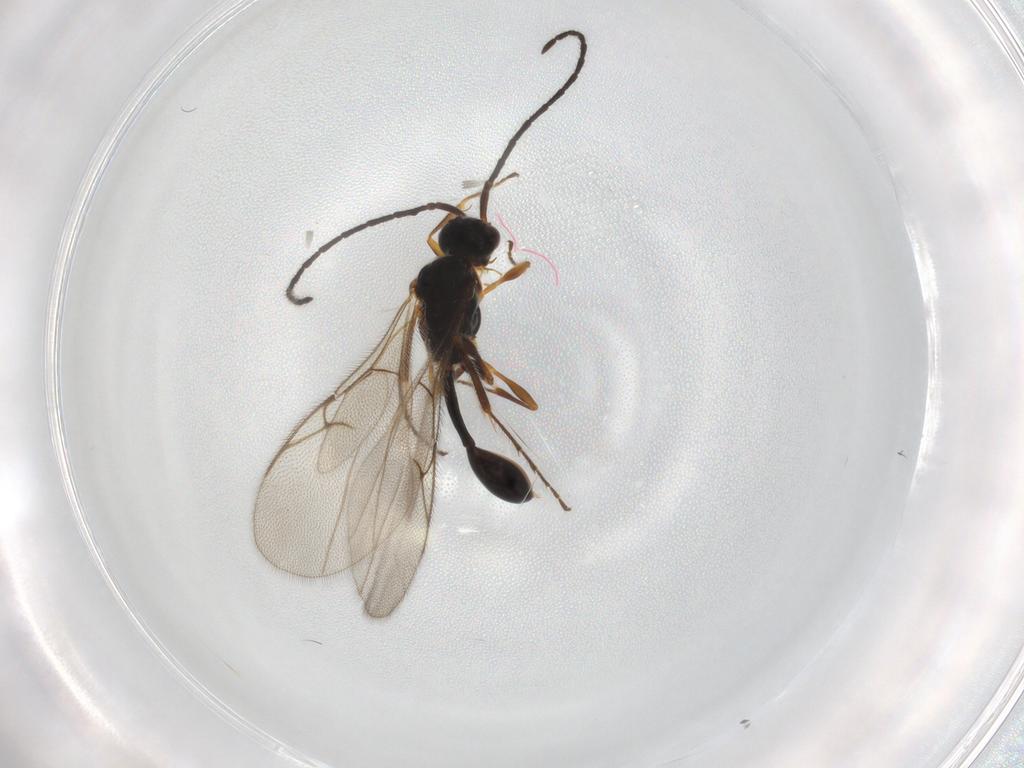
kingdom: Animalia
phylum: Arthropoda
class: Insecta
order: Hymenoptera
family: Diapriidae
